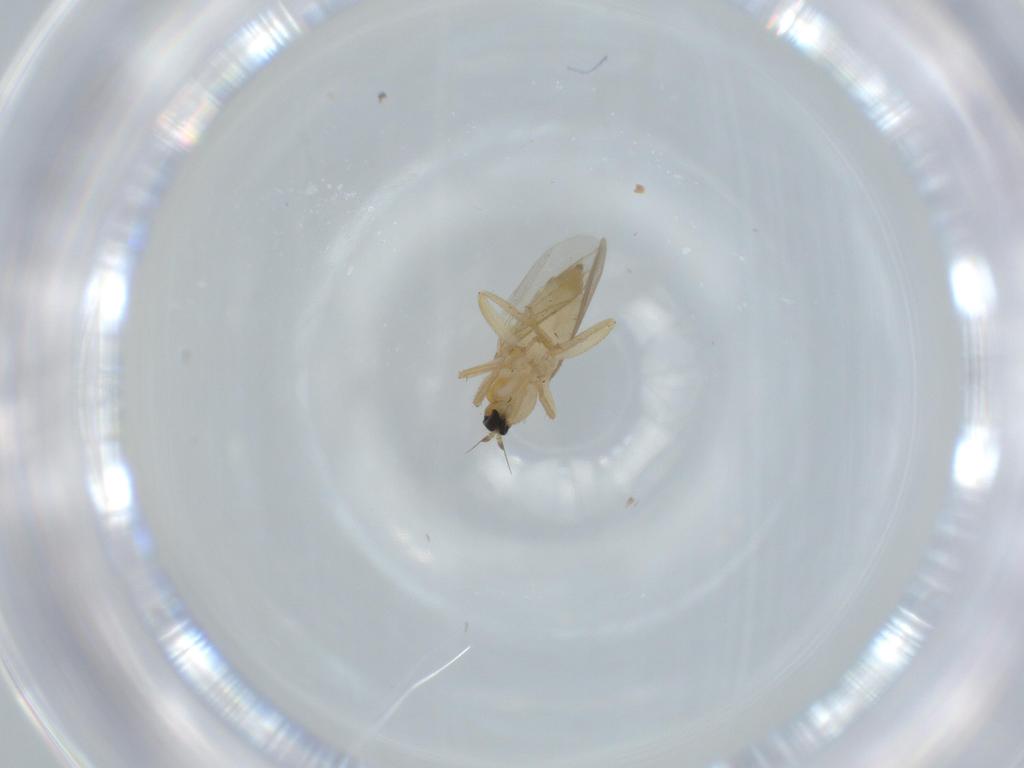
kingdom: Animalia
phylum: Arthropoda
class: Insecta
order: Diptera
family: Hybotidae
